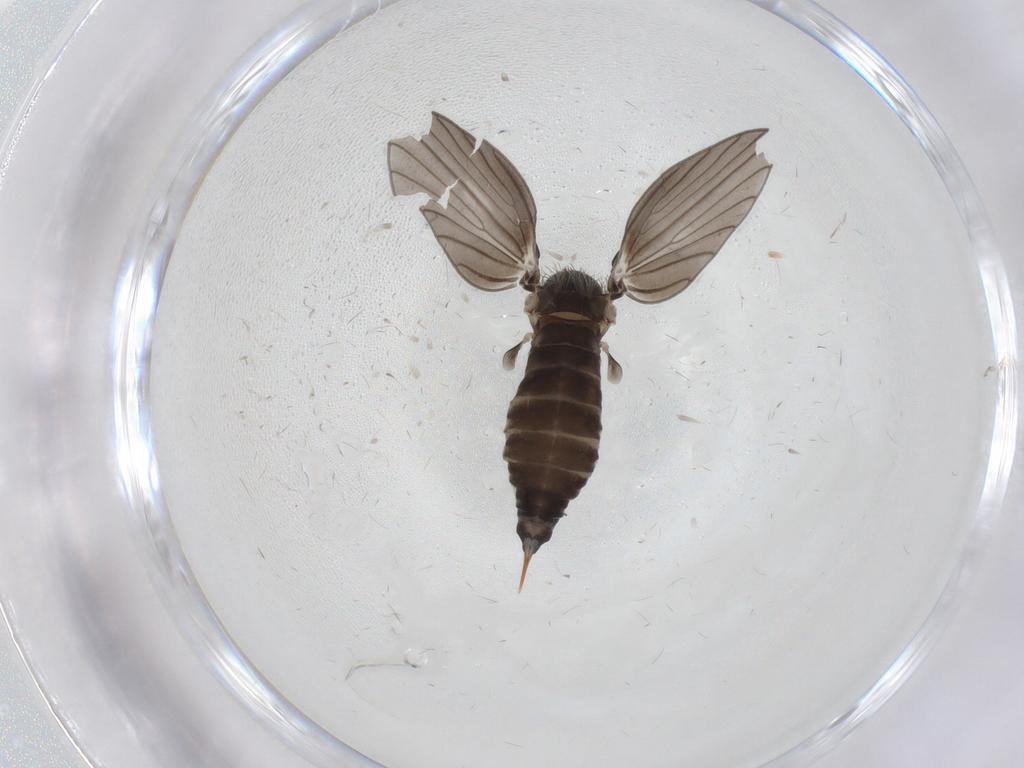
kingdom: Animalia
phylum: Arthropoda
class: Insecta
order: Diptera
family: Psychodidae
